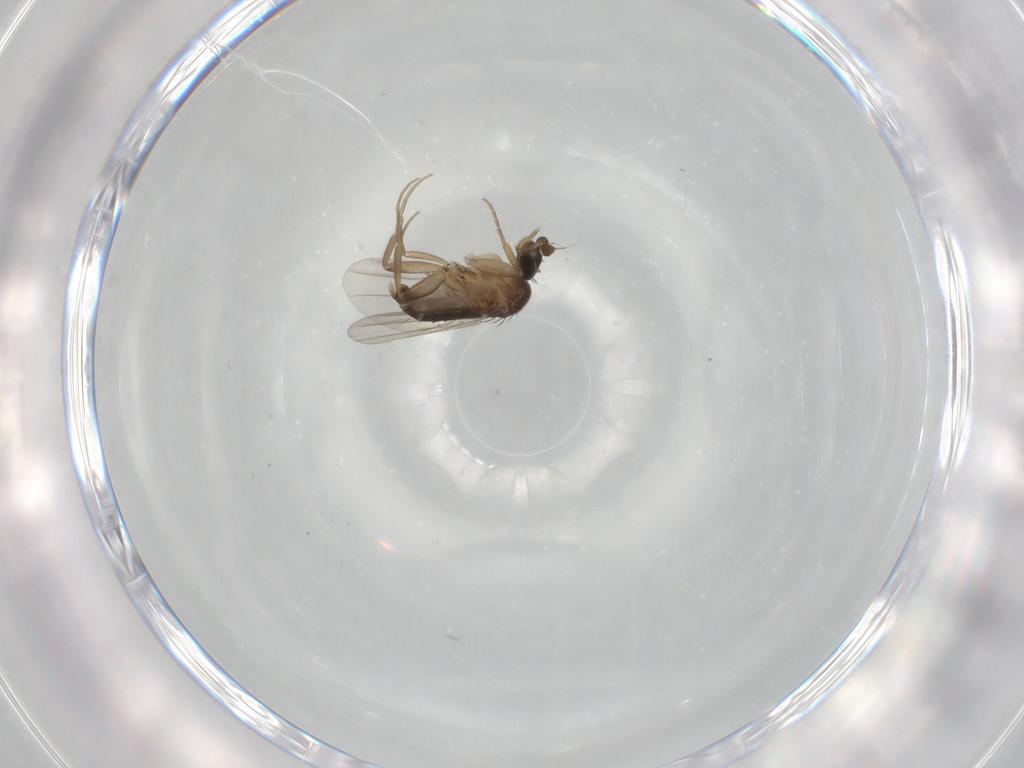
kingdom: Animalia
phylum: Arthropoda
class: Insecta
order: Diptera
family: Phoridae
